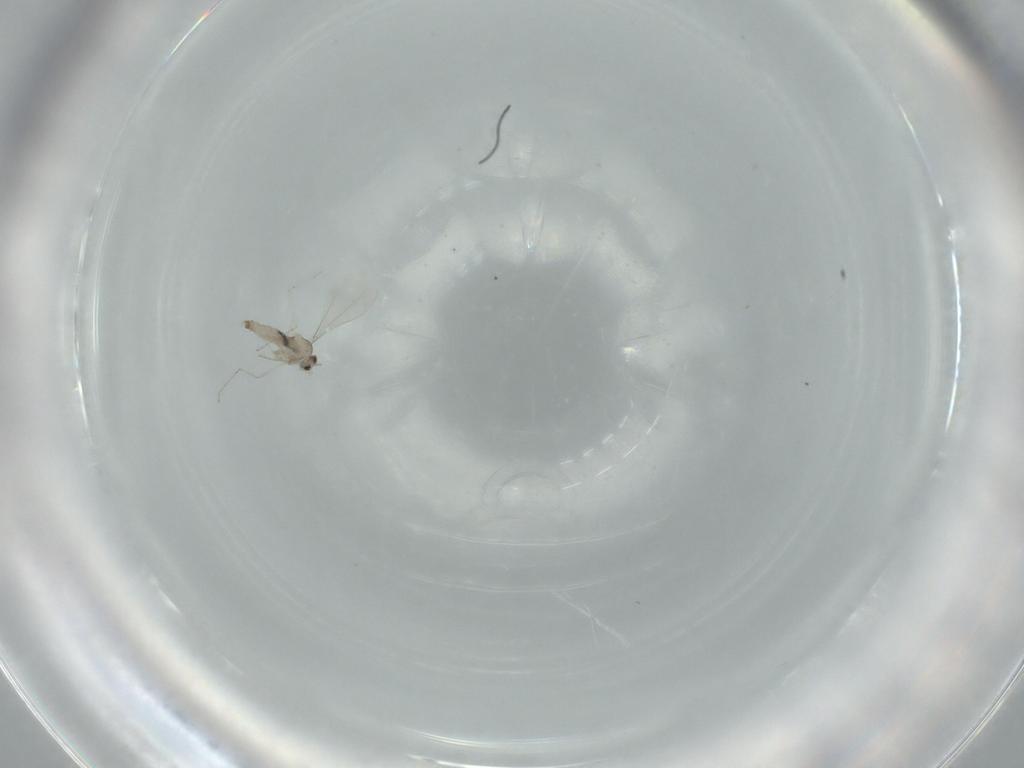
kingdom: Animalia
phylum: Arthropoda
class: Insecta
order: Diptera
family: Cecidomyiidae
